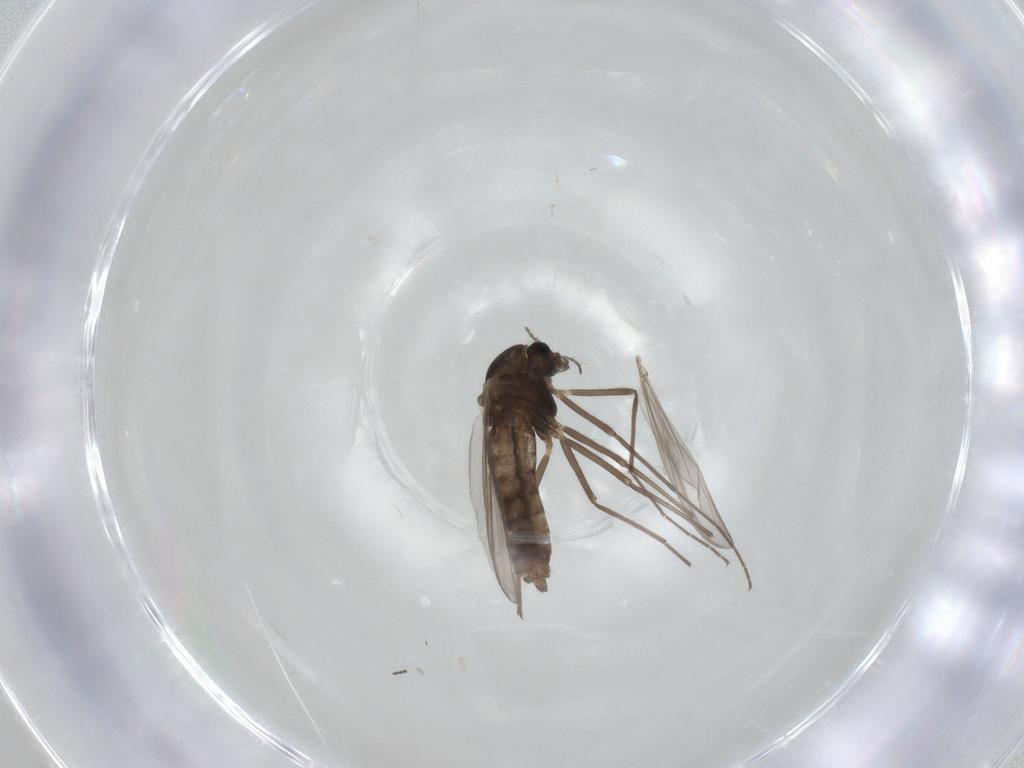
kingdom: Animalia
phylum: Arthropoda
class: Insecta
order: Diptera
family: Chironomidae
